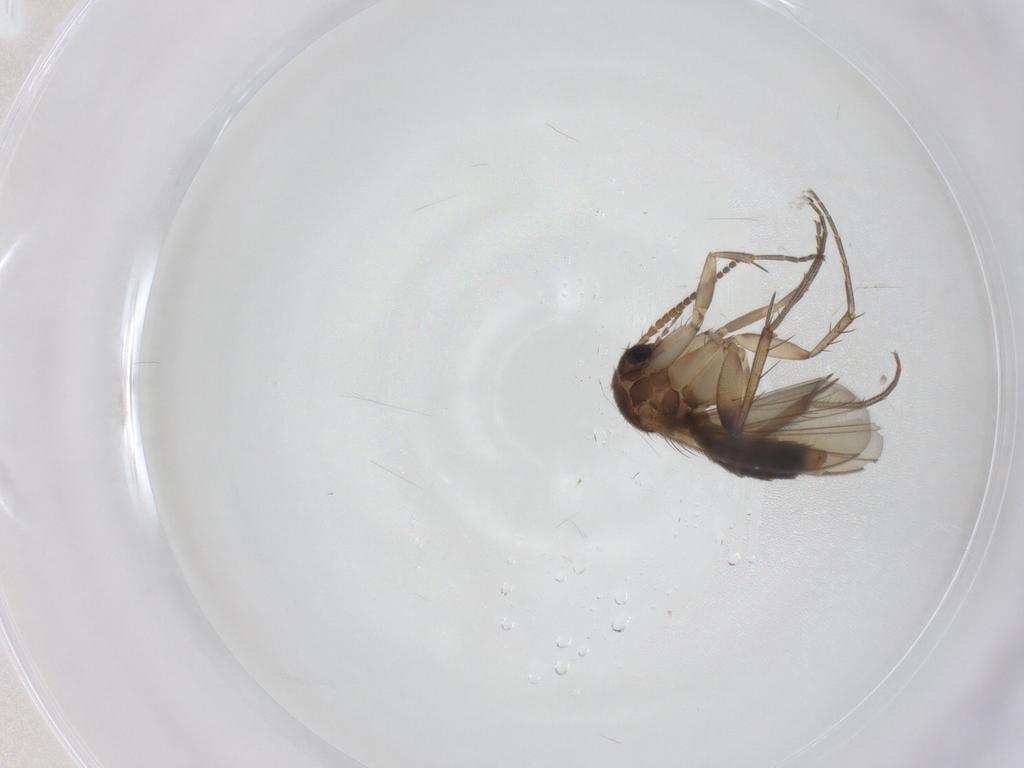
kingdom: Animalia
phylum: Arthropoda
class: Insecta
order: Diptera
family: Mycetophilidae
